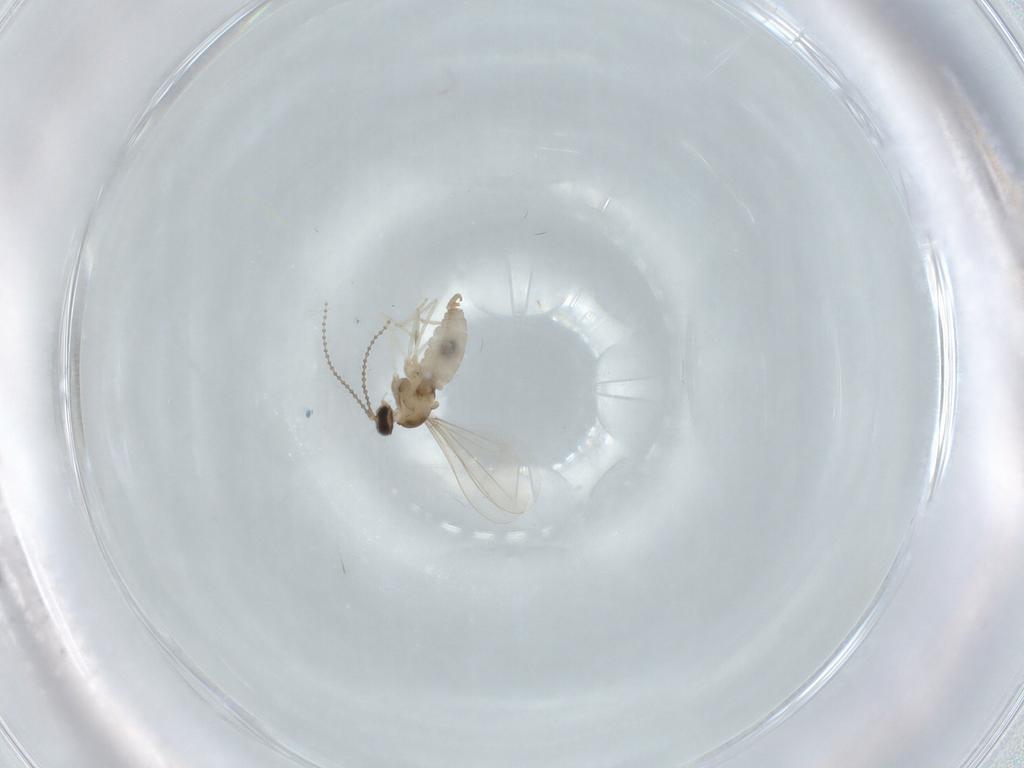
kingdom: Animalia
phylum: Arthropoda
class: Insecta
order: Diptera
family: Cecidomyiidae
